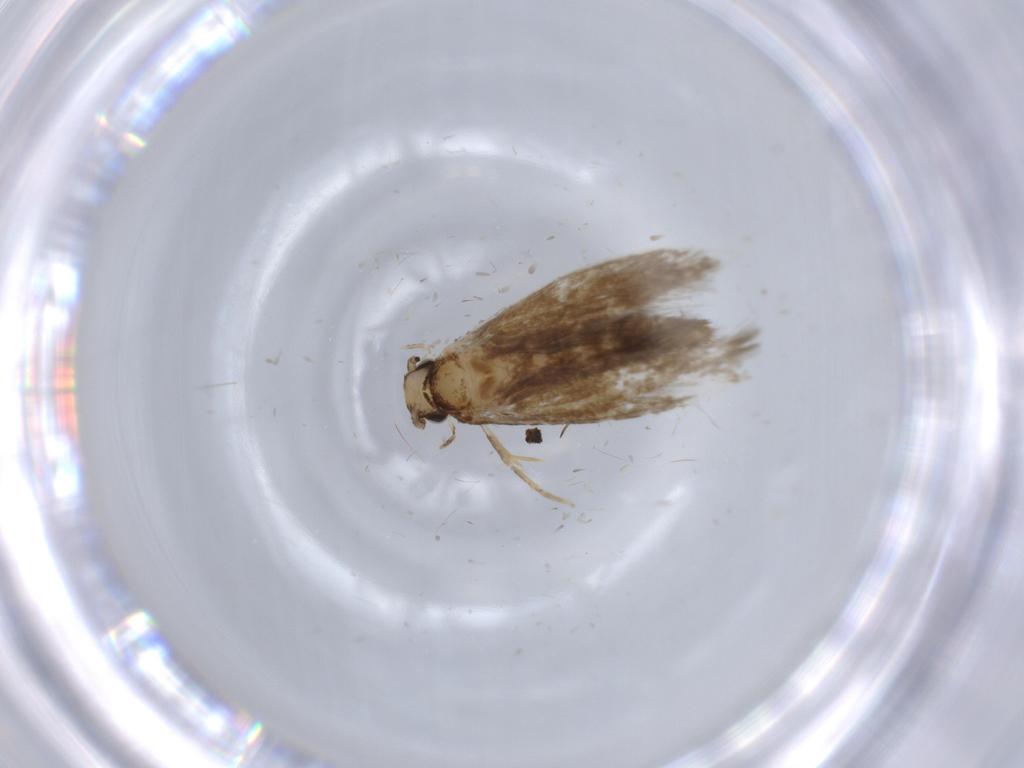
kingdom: Animalia
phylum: Arthropoda
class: Insecta
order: Lepidoptera
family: Tineidae
